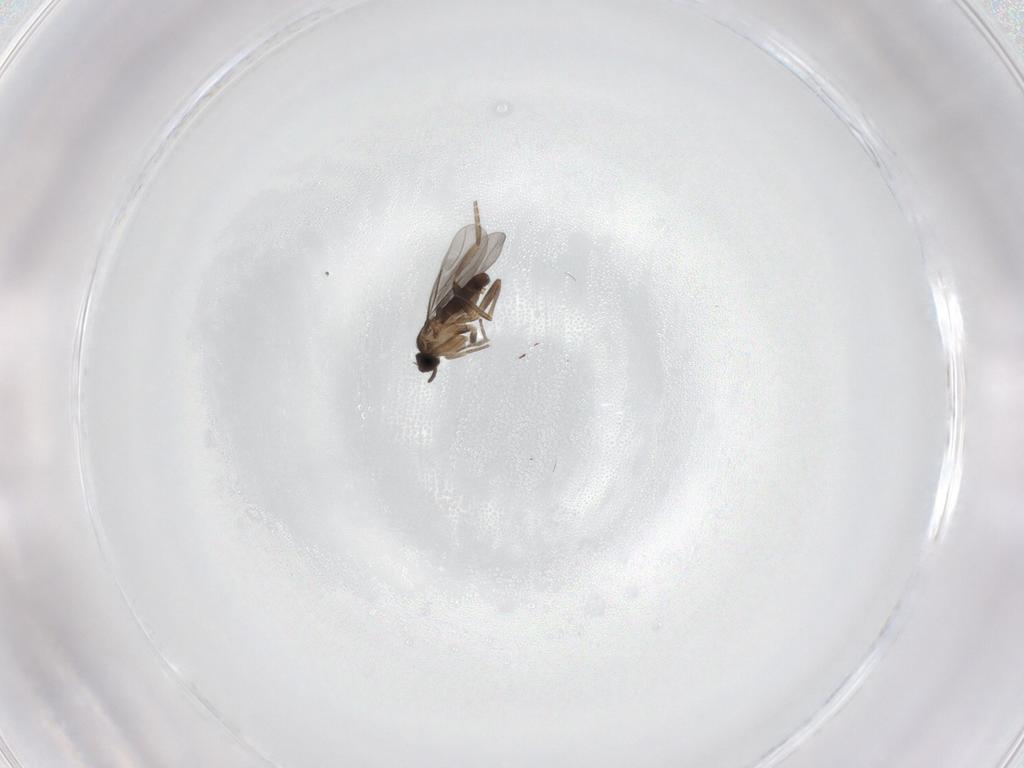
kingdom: Animalia
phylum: Arthropoda
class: Insecta
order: Diptera
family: Chironomidae
